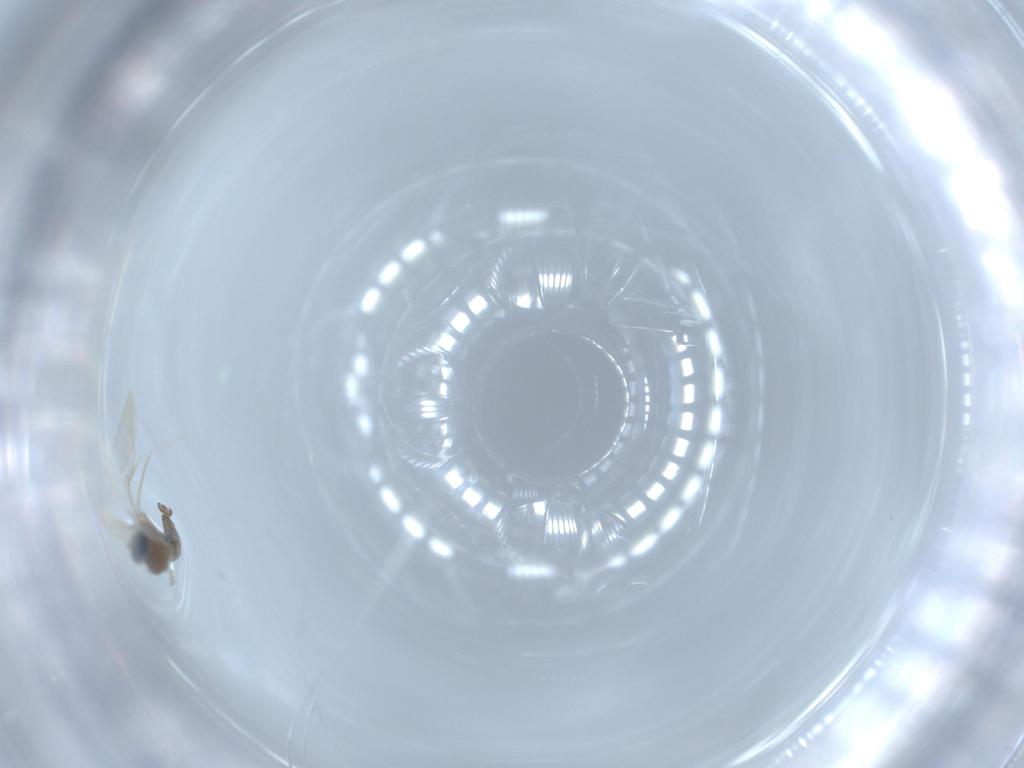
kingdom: Animalia
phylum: Arthropoda
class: Insecta
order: Diptera
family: Cecidomyiidae
